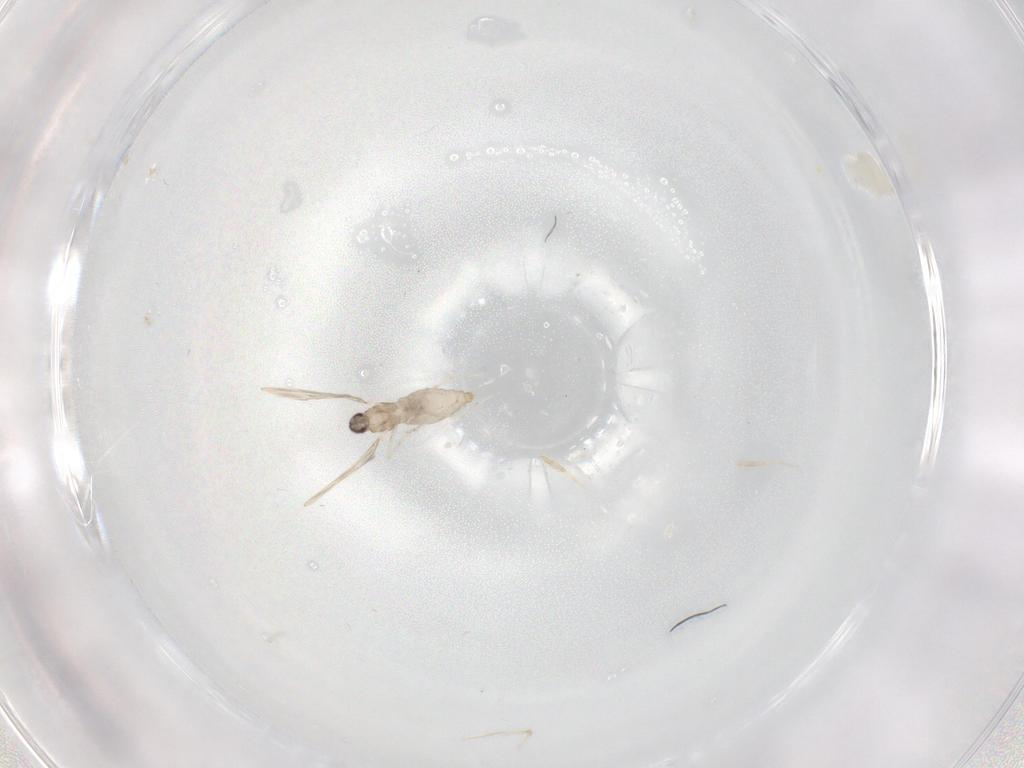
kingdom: Animalia
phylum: Arthropoda
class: Insecta
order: Diptera
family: Cecidomyiidae
